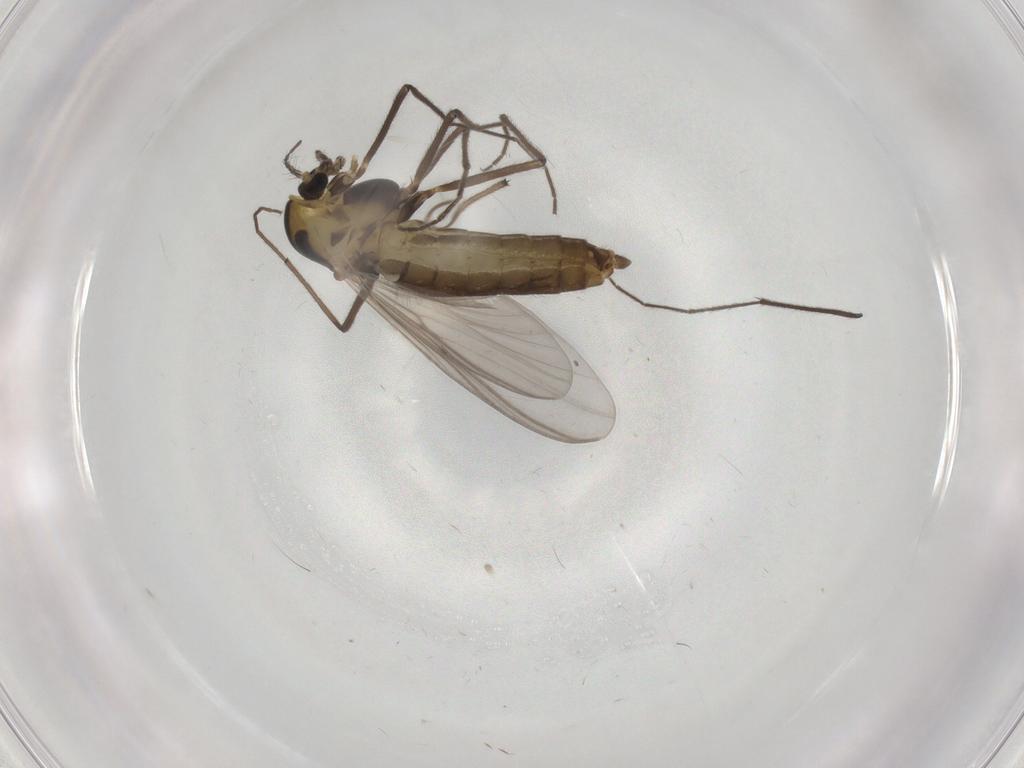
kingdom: Animalia
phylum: Arthropoda
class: Insecta
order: Diptera
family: Chironomidae
